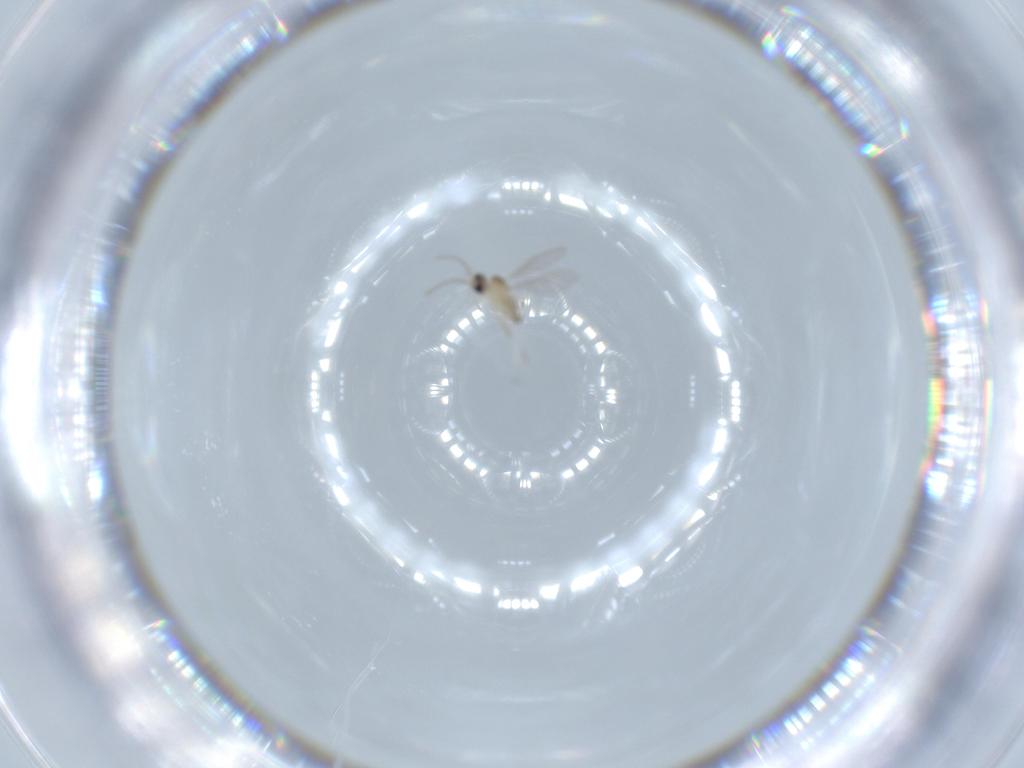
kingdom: Animalia
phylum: Arthropoda
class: Insecta
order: Diptera
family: Cecidomyiidae
